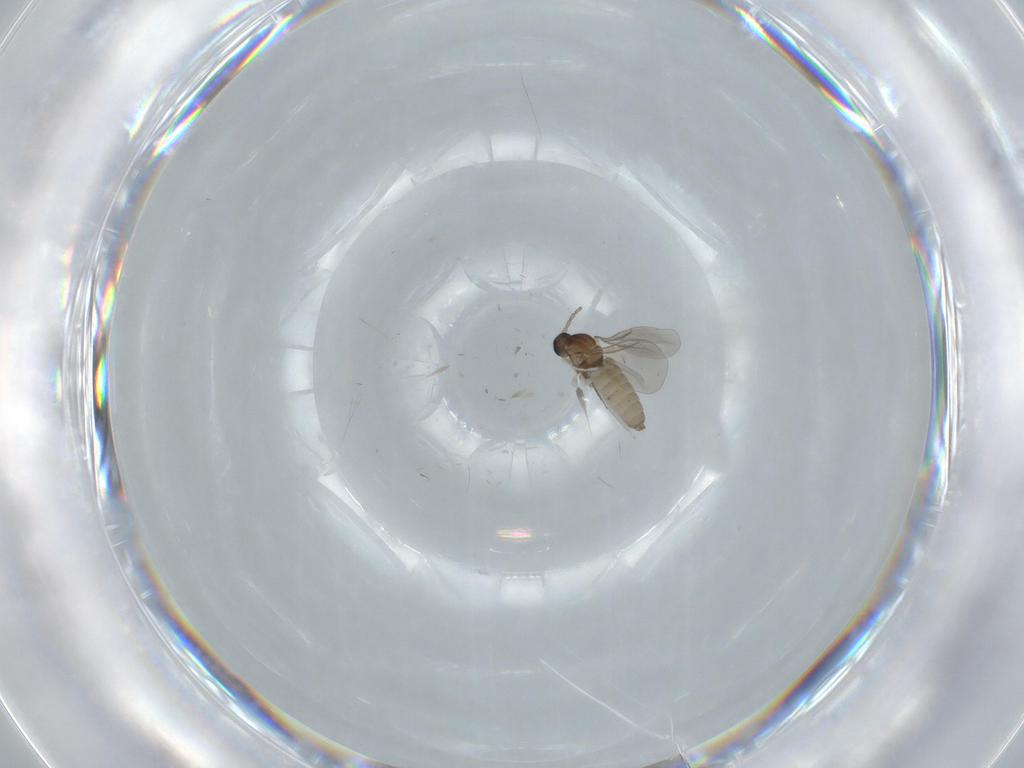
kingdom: Animalia
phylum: Arthropoda
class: Insecta
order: Diptera
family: Cecidomyiidae
